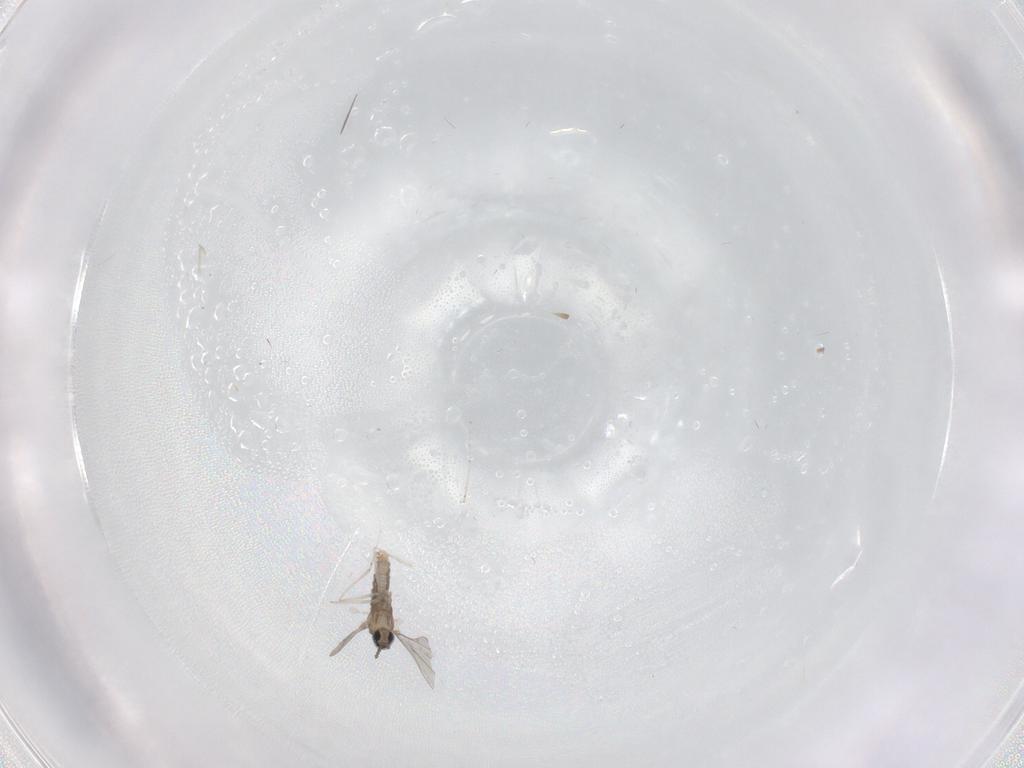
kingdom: Animalia
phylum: Arthropoda
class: Insecta
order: Diptera
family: Cecidomyiidae
